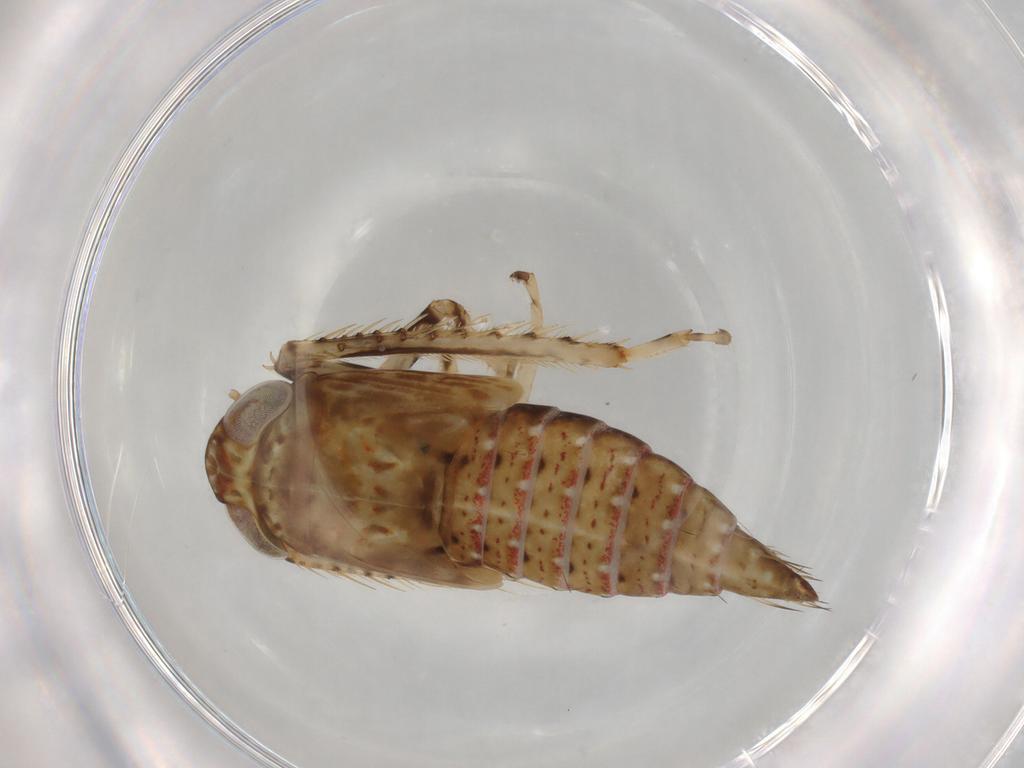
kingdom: Animalia
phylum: Arthropoda
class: Insecta
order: Hemiptera
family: Cicadellidae
